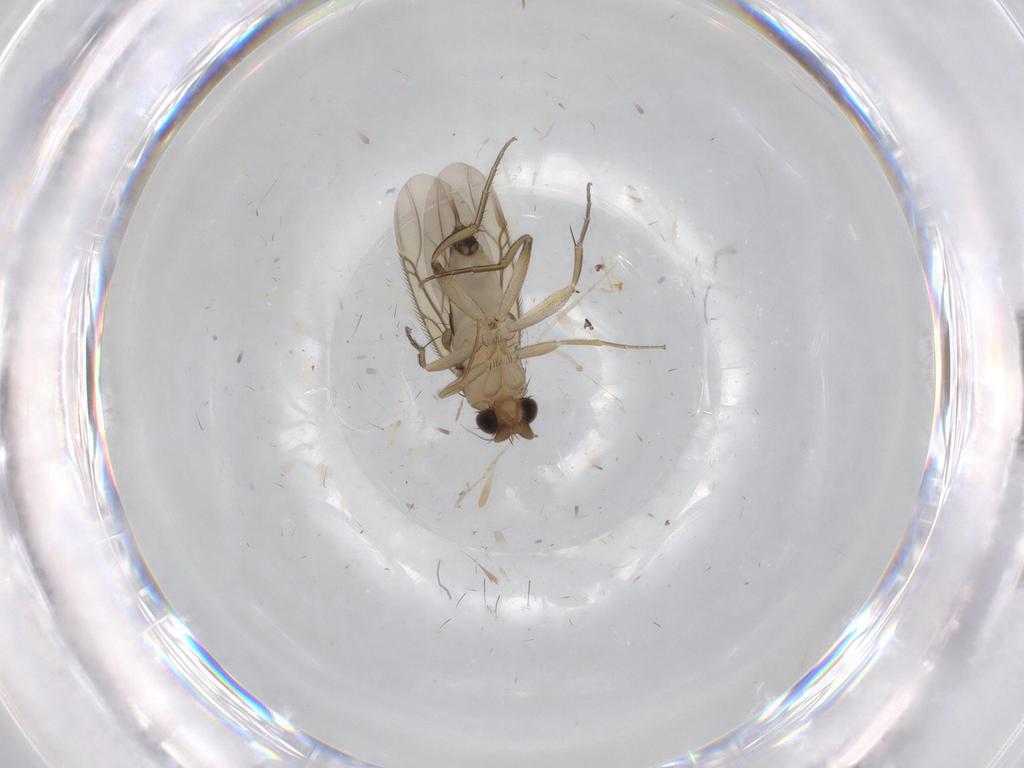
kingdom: Animalia
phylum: Arthropoda
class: Insecta
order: Diptera
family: Phoridae
